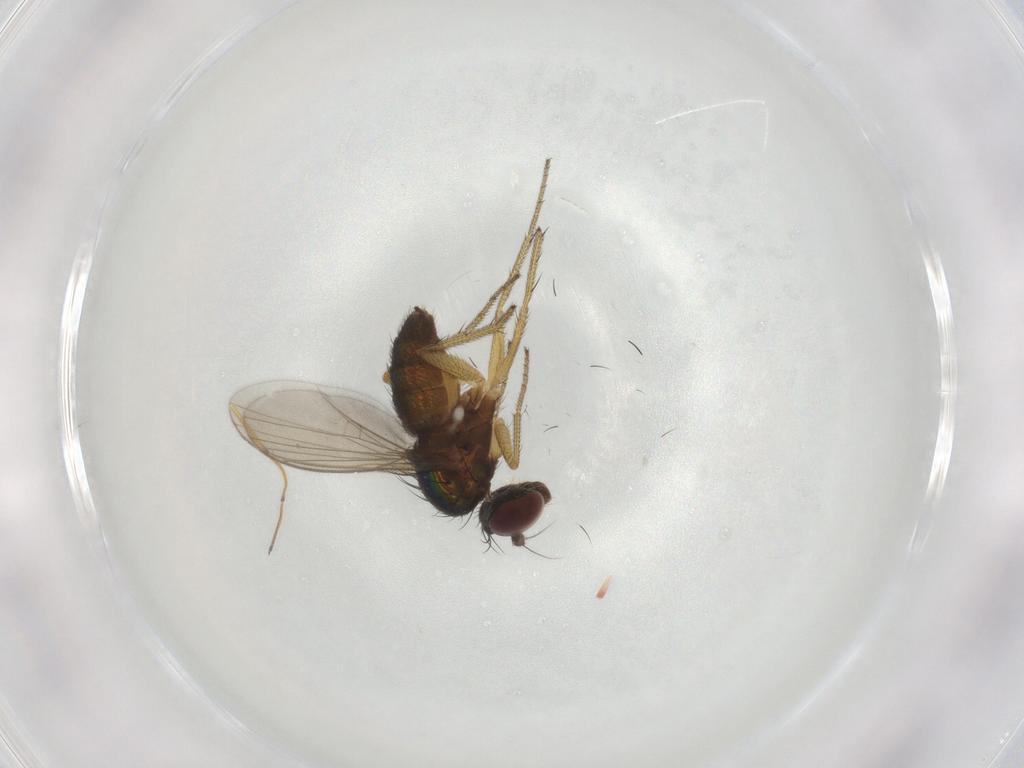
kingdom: Animalia
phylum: Arthropoda
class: Insecta
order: Diptera
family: Dolichopodidae
